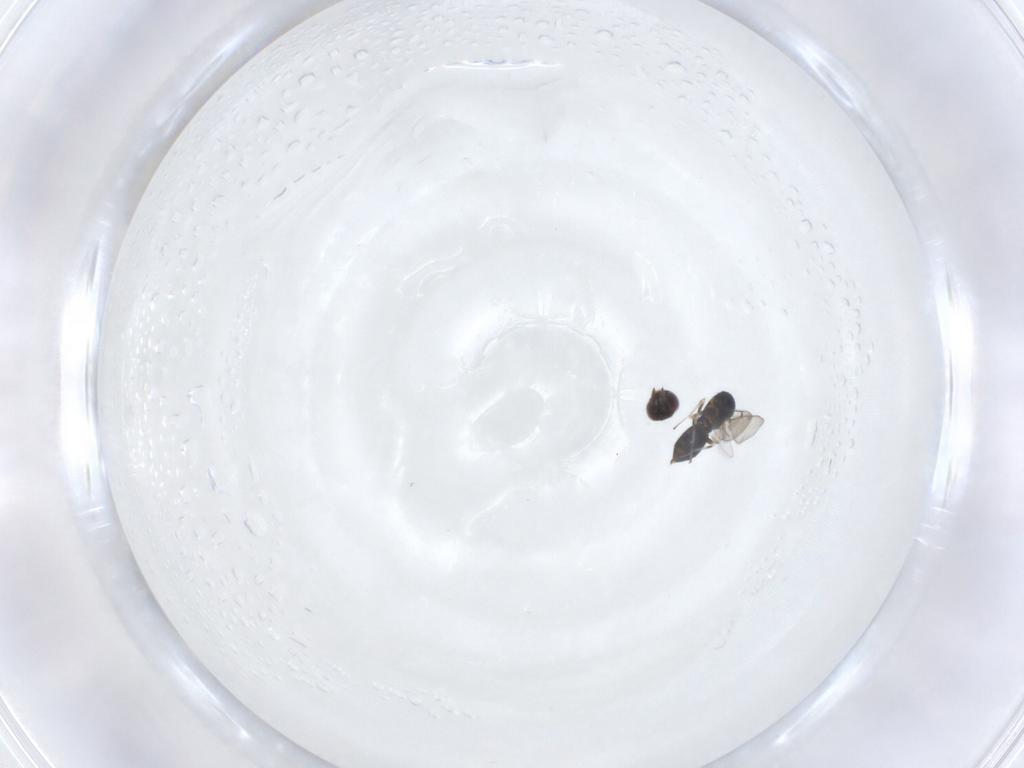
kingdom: Animalia
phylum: Arthropoda
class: Insecta
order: Hymenoptera
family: Eulophidae
